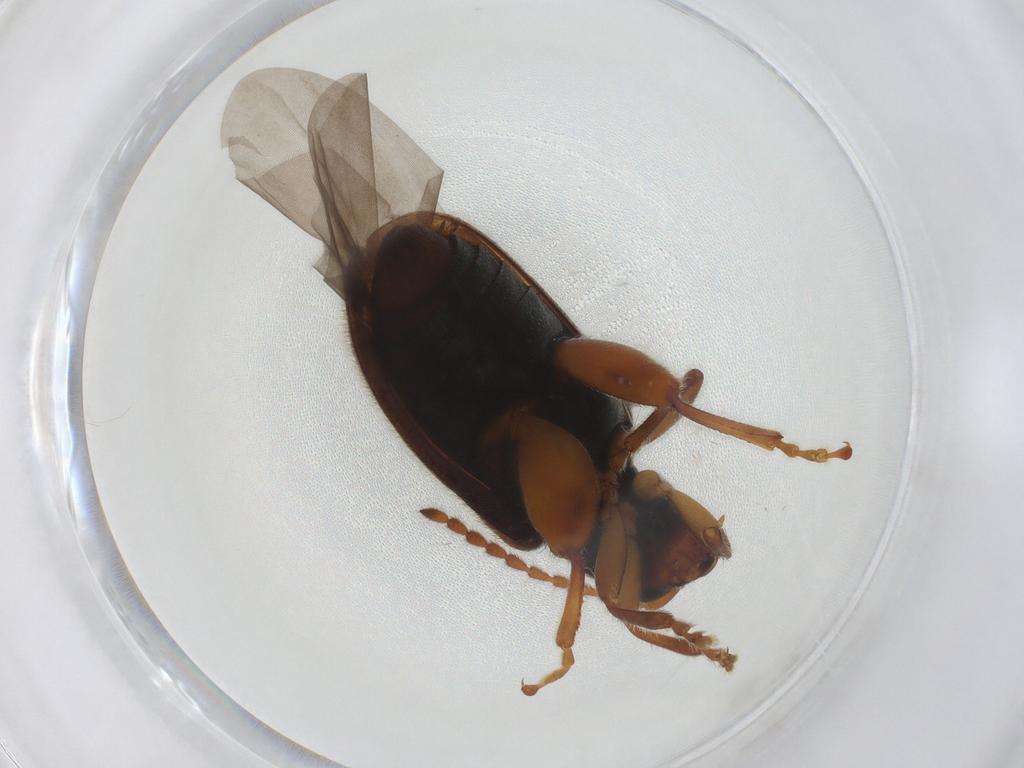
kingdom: Animalia
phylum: Arthropoda
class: Insecta
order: Coleoptera
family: Chrysomelidae
